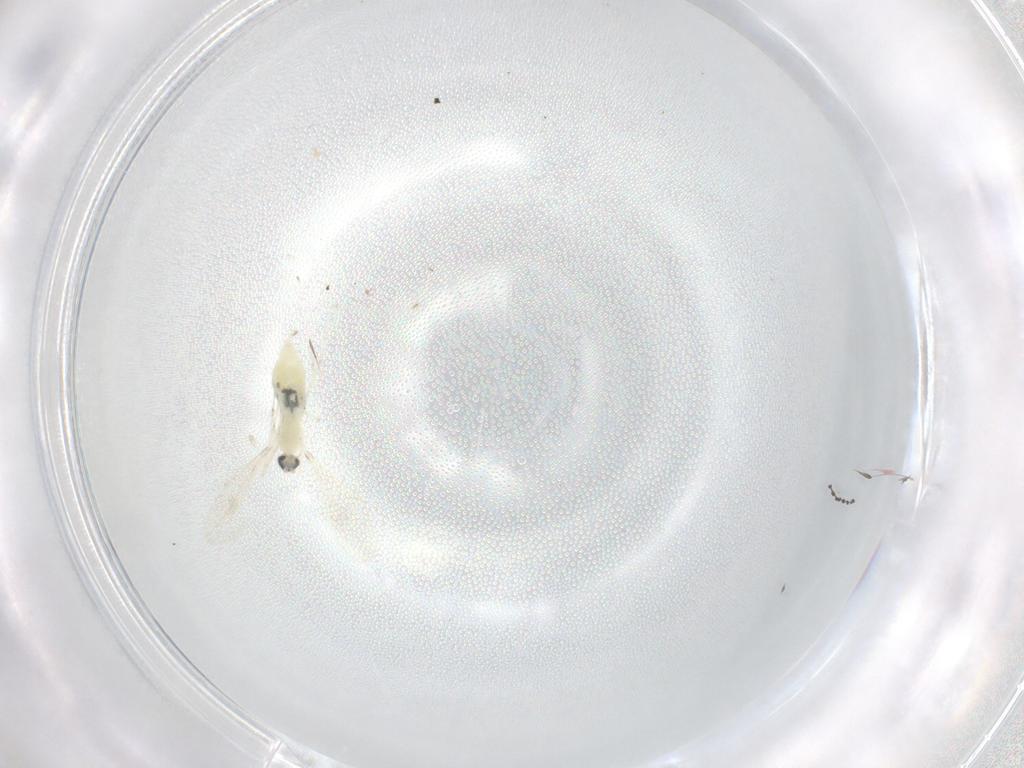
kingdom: Animalia
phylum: Arthropoda
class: Insecta
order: Diptera
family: Cecidomyiidae
